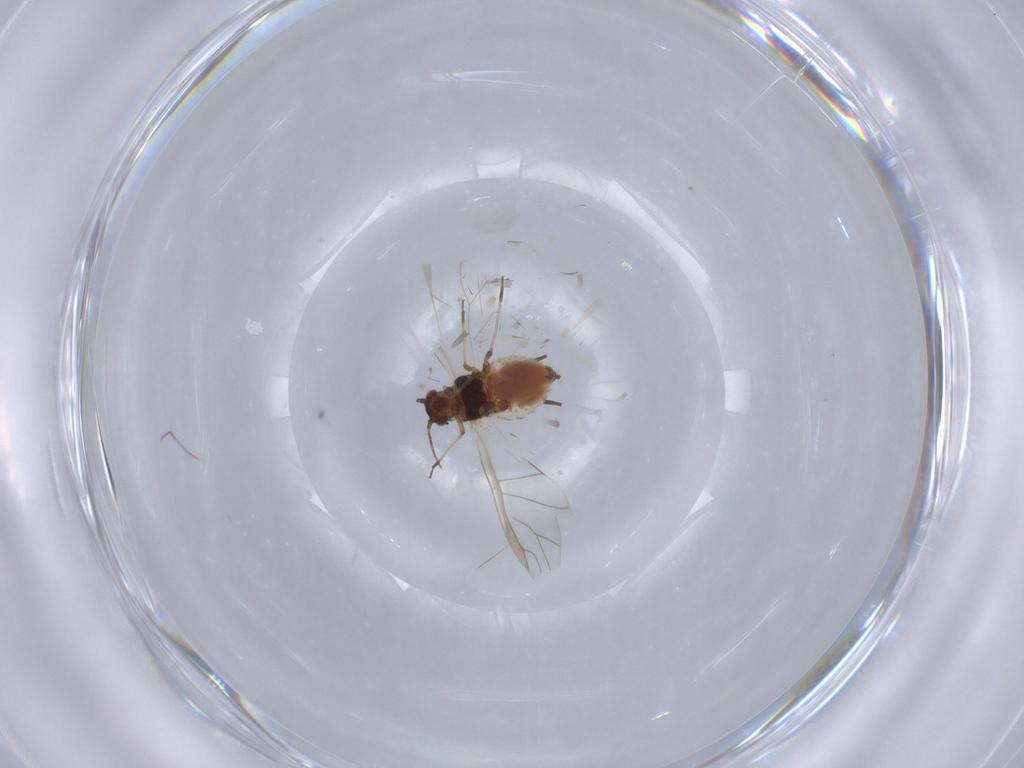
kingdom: Animalia
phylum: Arthropoda
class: Insecta
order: Hemiptera
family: Aphididae
